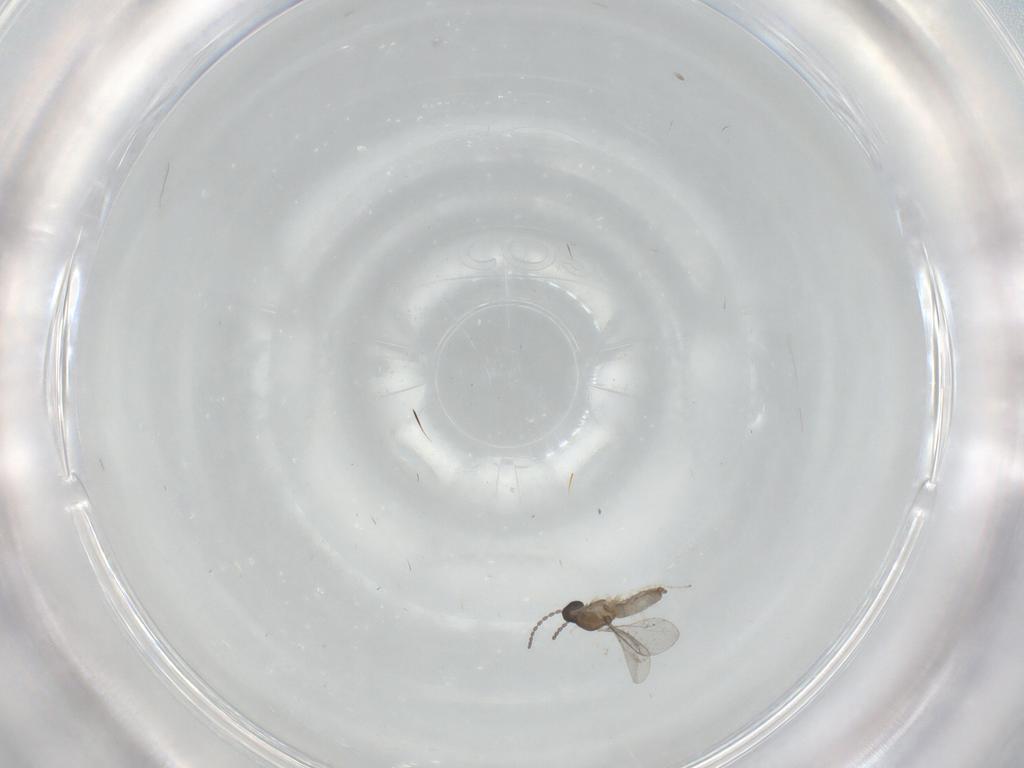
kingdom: Animalia
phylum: Arthropoda
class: Insecta
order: Diptera
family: Cecidomyiidae
